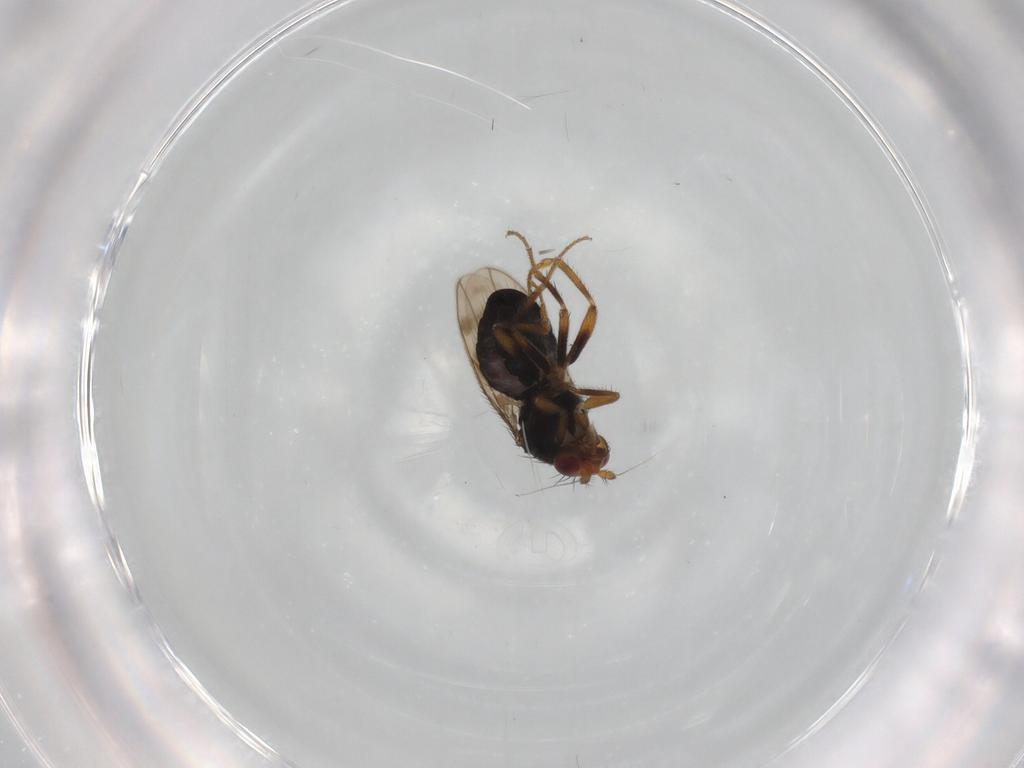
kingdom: Animalia
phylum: Arthropoda
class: Insecta
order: Diptera
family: Sphaeroceridae
